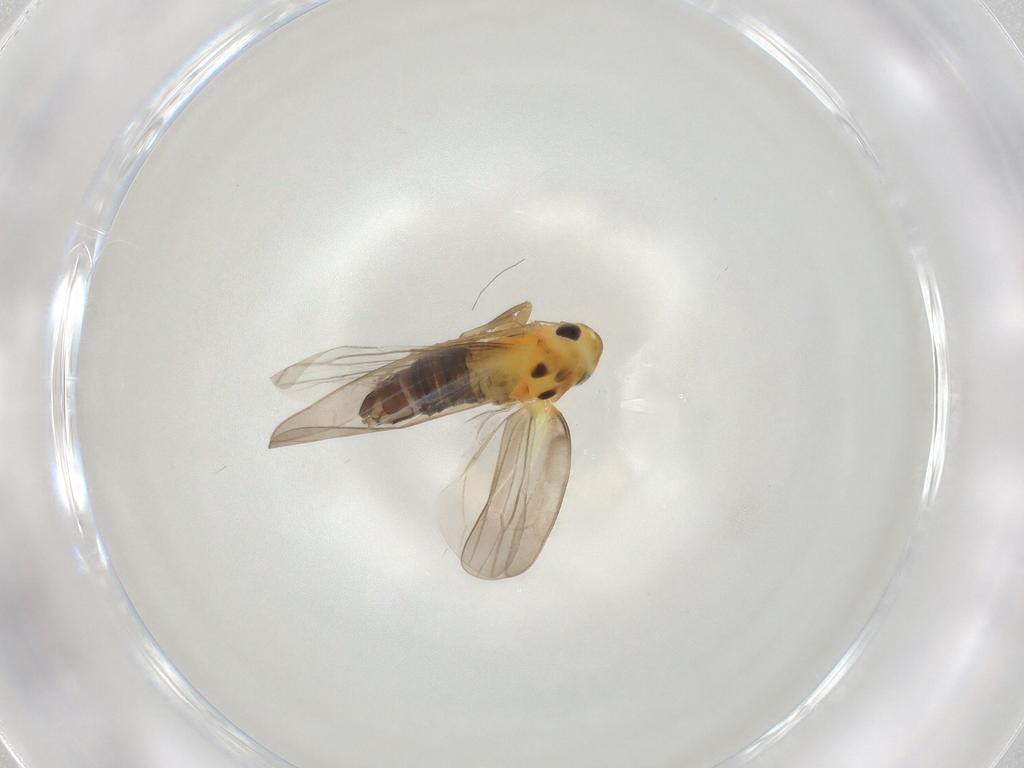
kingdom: Animalia
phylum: Arthropoda
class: Insecta
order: Hemiptera
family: Cicadellidae
